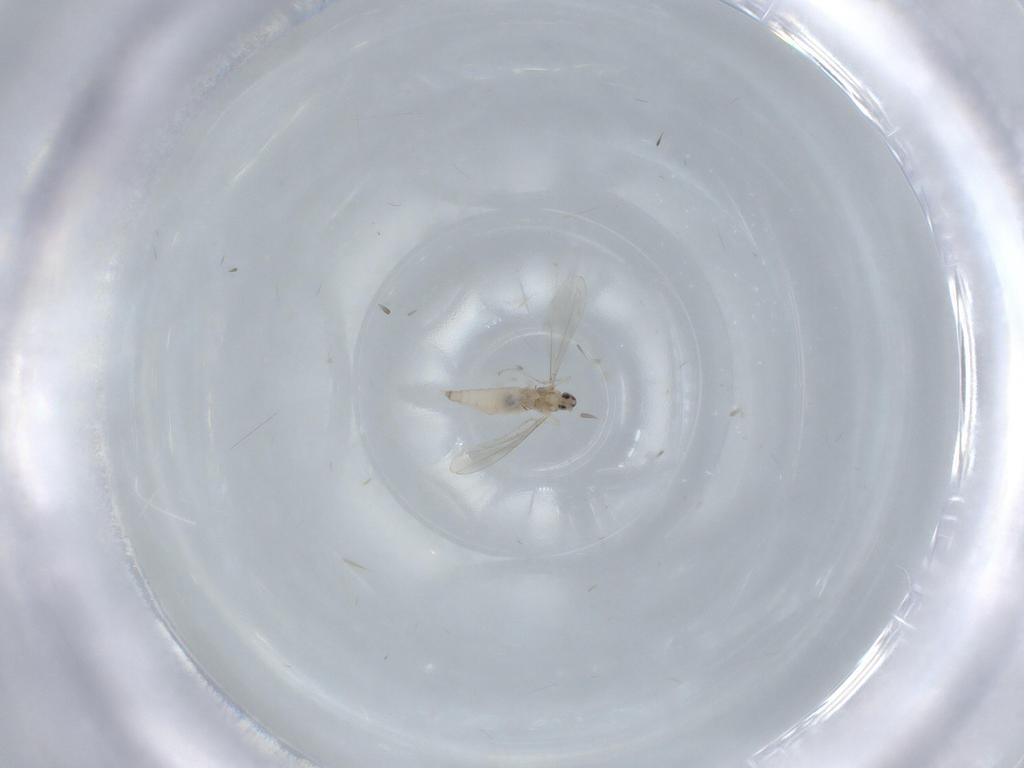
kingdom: Animalia
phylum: Arthropoda
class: Insecta
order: Diptera
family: Cecidomyiidae
